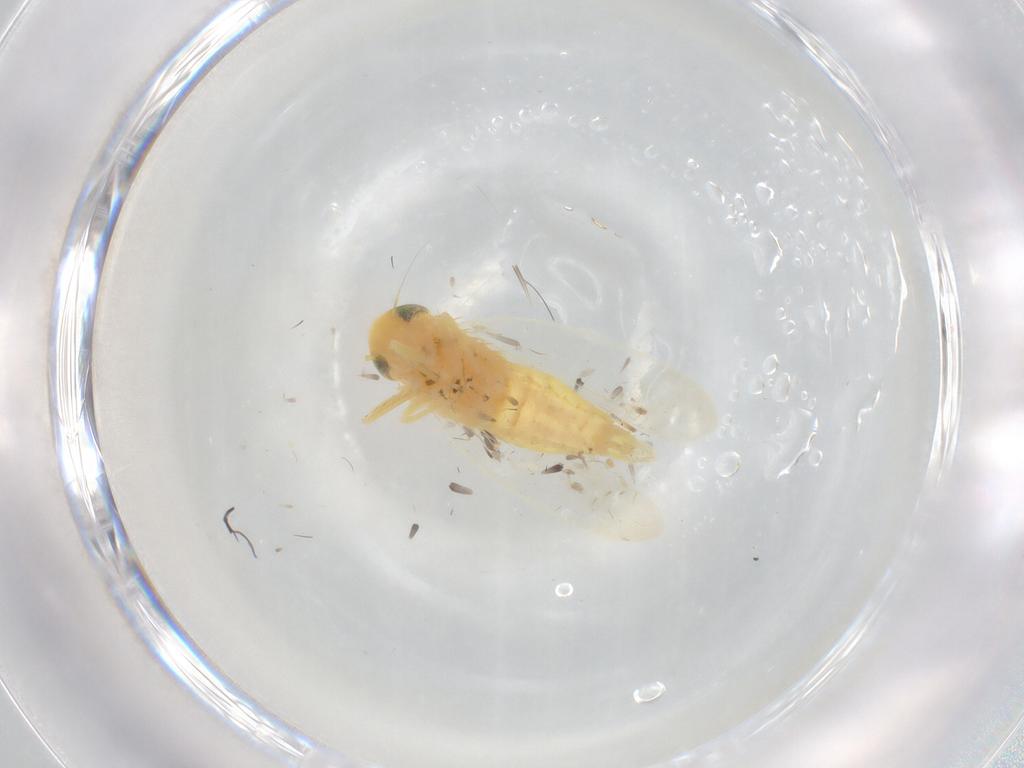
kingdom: Animalia
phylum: Arthropoda
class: Insecta
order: Hemiptera
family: Cicadellidae
